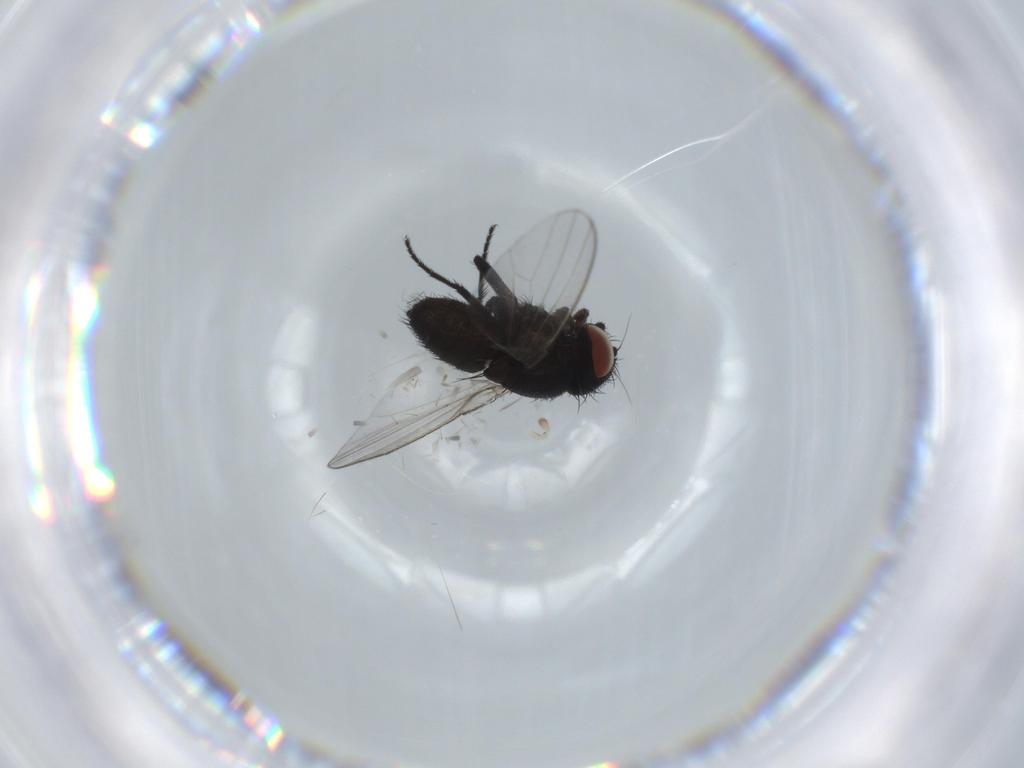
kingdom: Animalia
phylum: Arthropoda
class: Insecta
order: Diptera
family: Milichiidae
